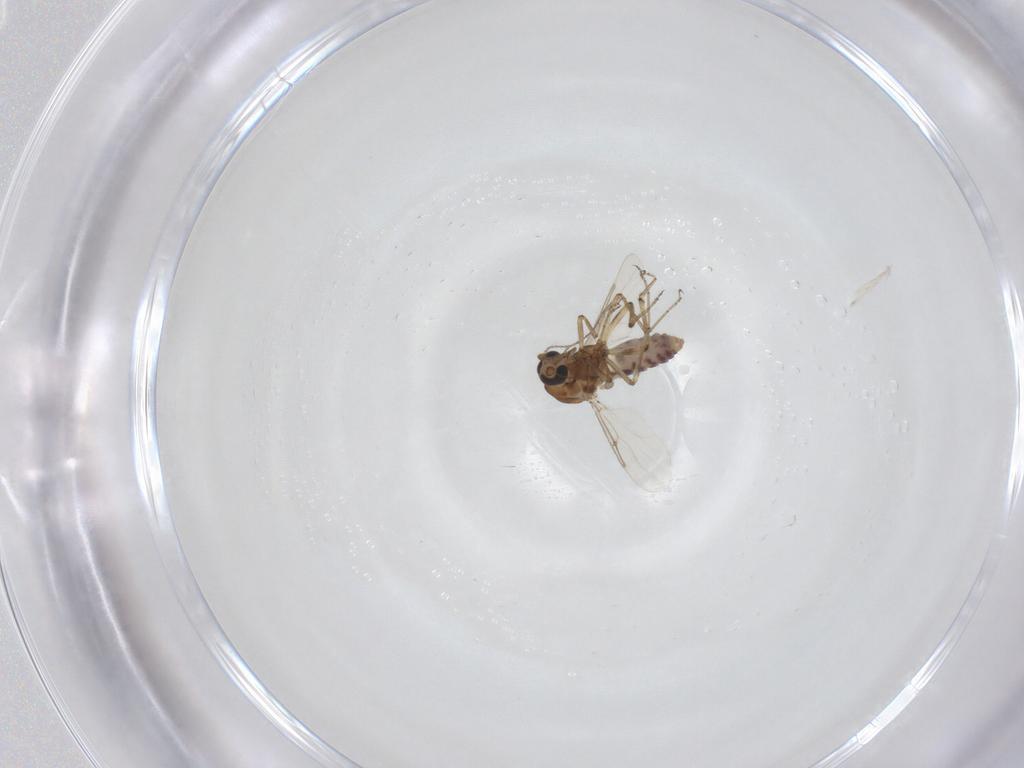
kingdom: Animalia
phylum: Arthropoda
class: Insecta
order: Diptera
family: Ceratopogonidae
